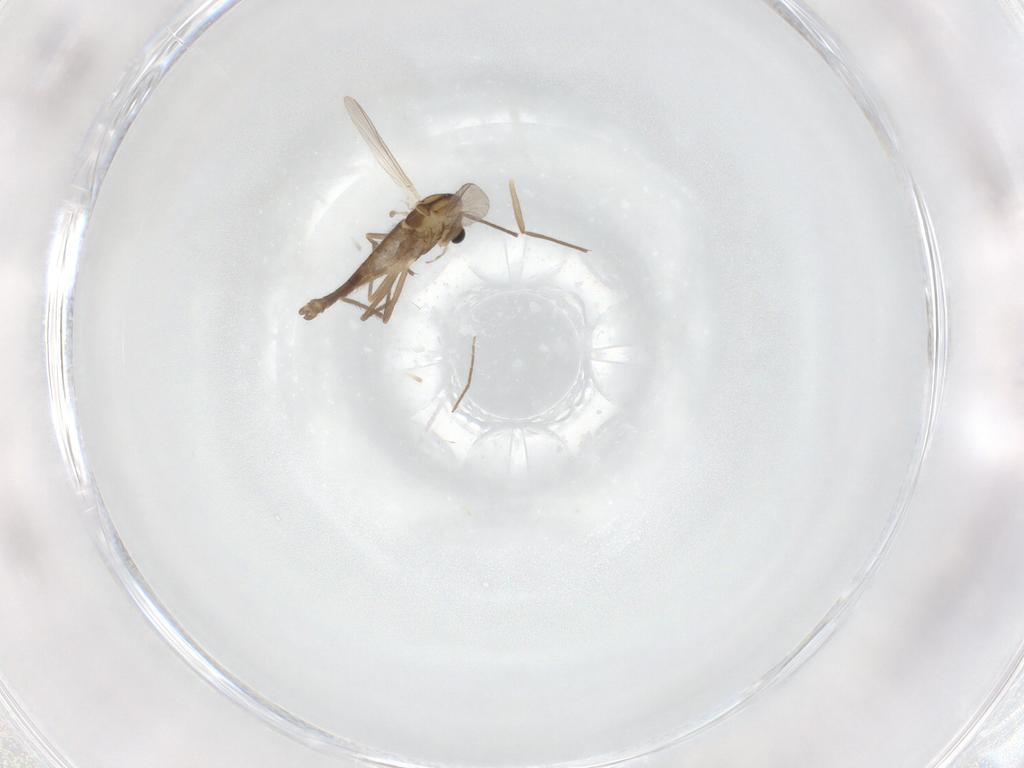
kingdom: Animalia
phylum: Arthropoda
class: Insecta
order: Diptera
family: Chironomidae
